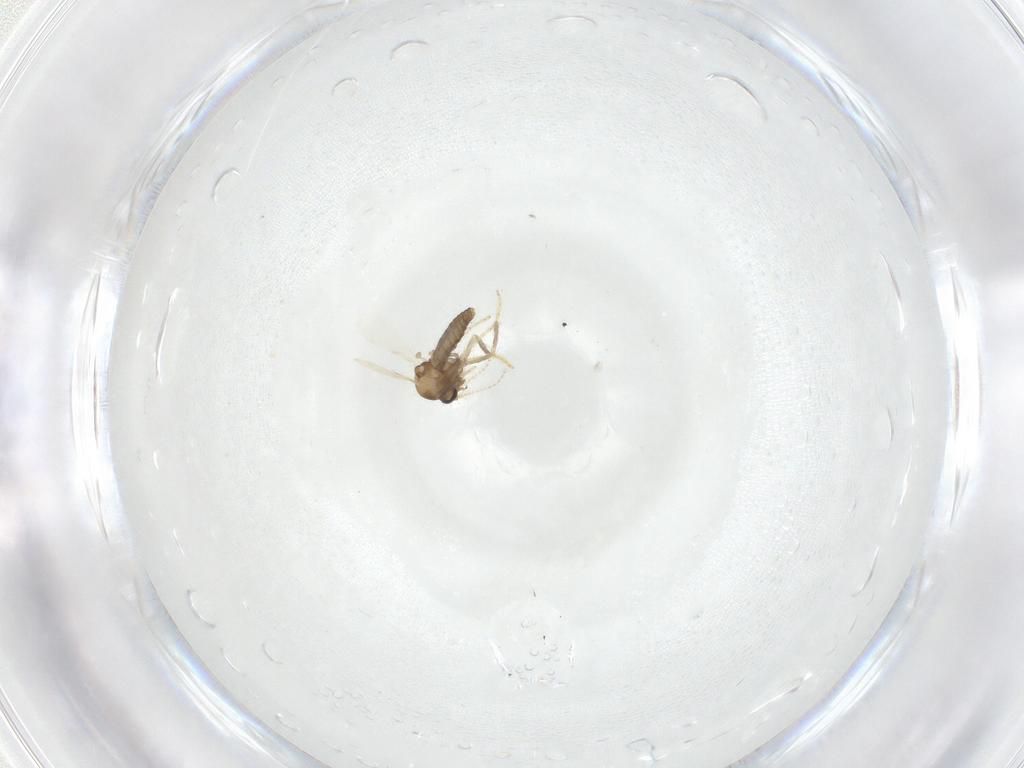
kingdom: Animalia
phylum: Arthropoda
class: Insecta
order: Diptera
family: Ceratopogonidae
